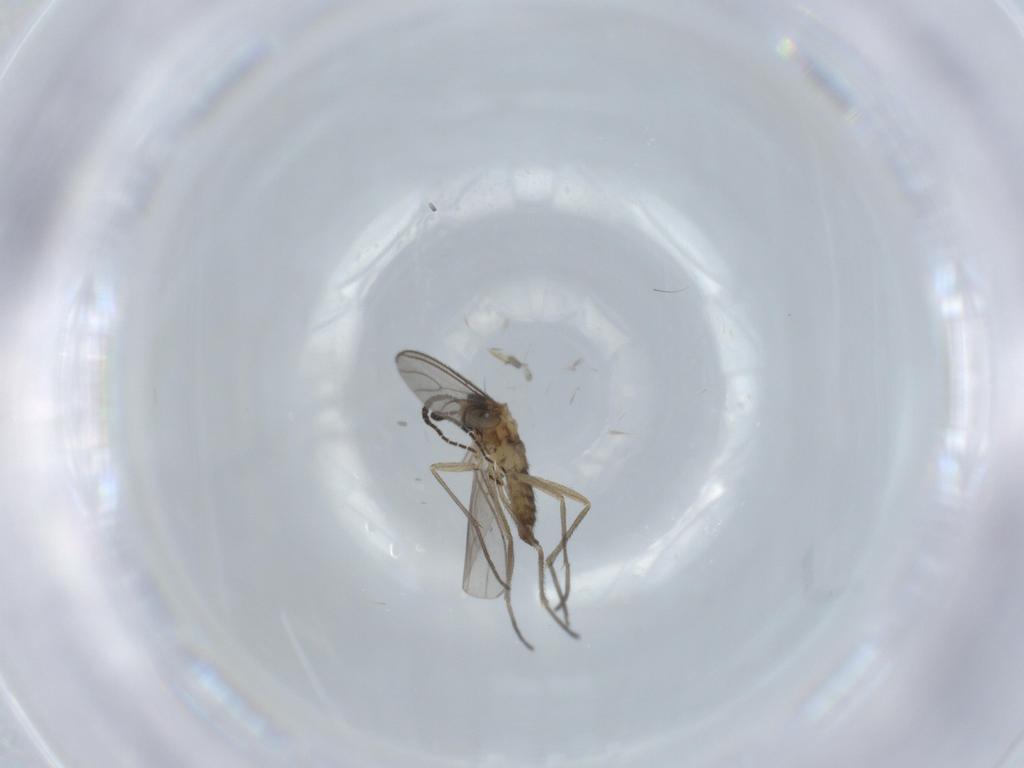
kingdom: Animalia
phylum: Arthropoda
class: Insecta
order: Diptera
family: Sciaridae
